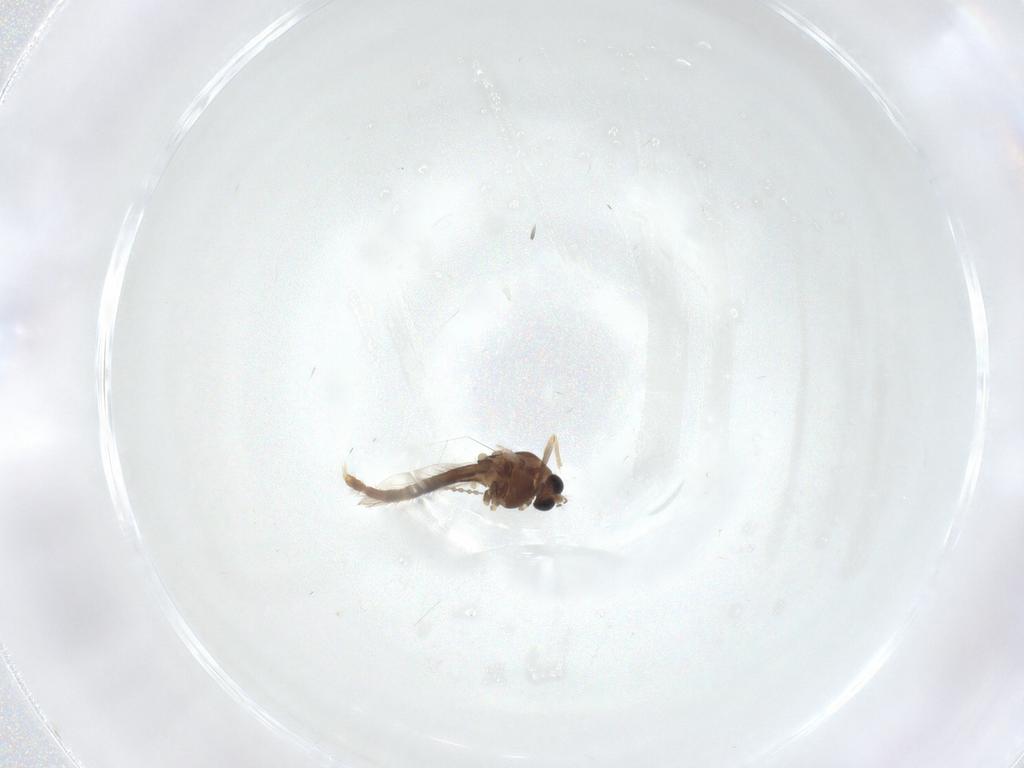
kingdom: Animalia
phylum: Arthropoda
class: Insecta
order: Diptera
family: Chironomidae
